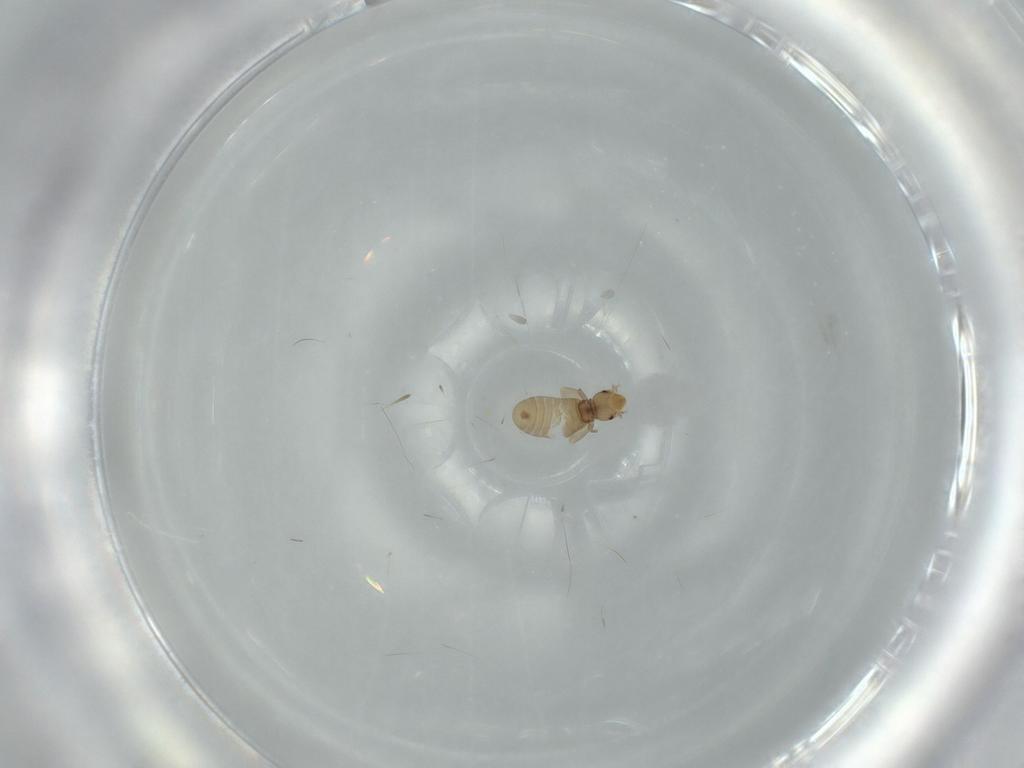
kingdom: Animalia
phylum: Arthropoda
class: Insecta
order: Psocodea
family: Liposcelididae
